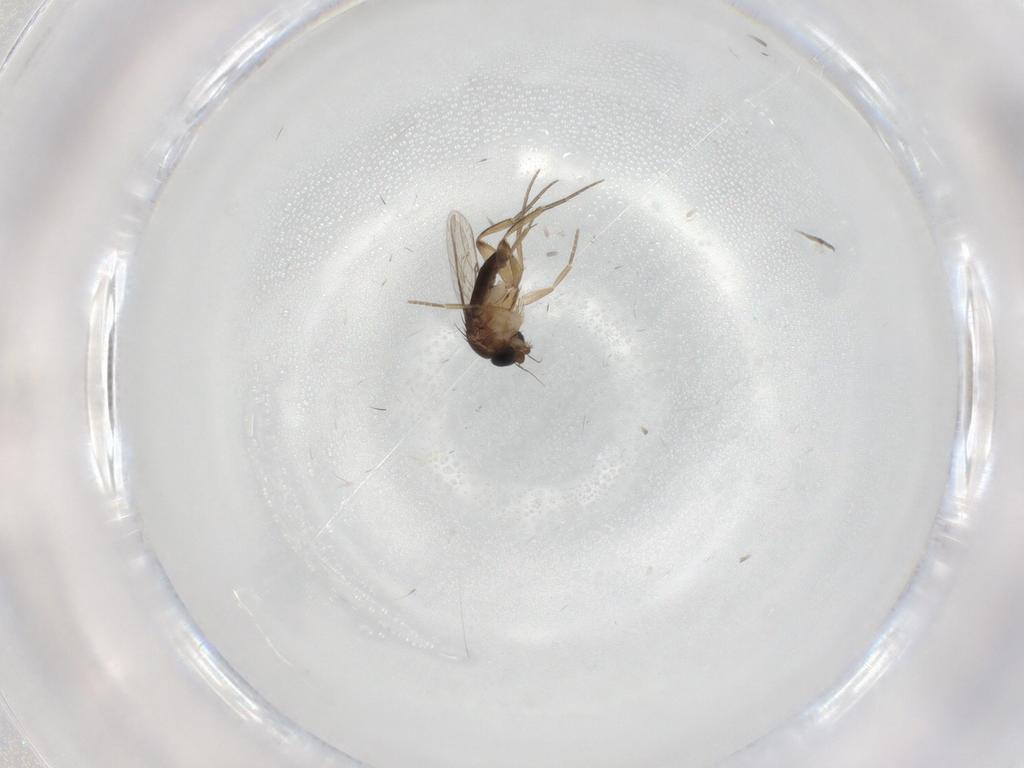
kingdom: Animalia
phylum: Arthropoda
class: Insecta
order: Diptera
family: Phoridae
